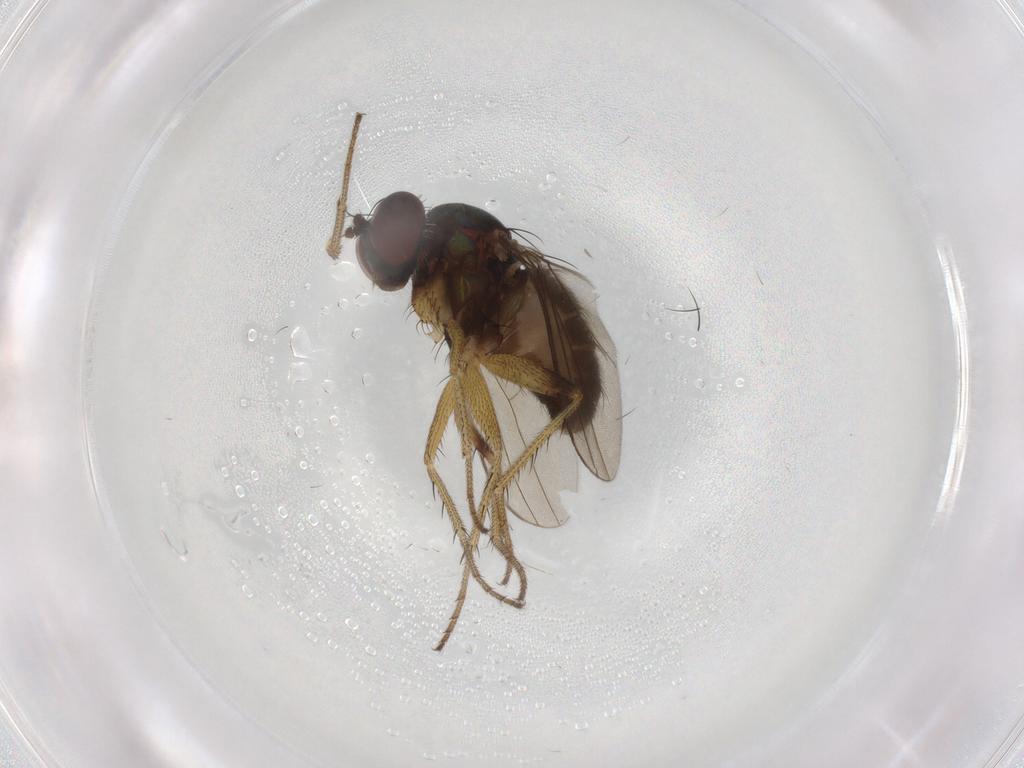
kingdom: Animalia
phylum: Arthropoda
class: Insecta
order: Diptera
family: Dolichopodidae
